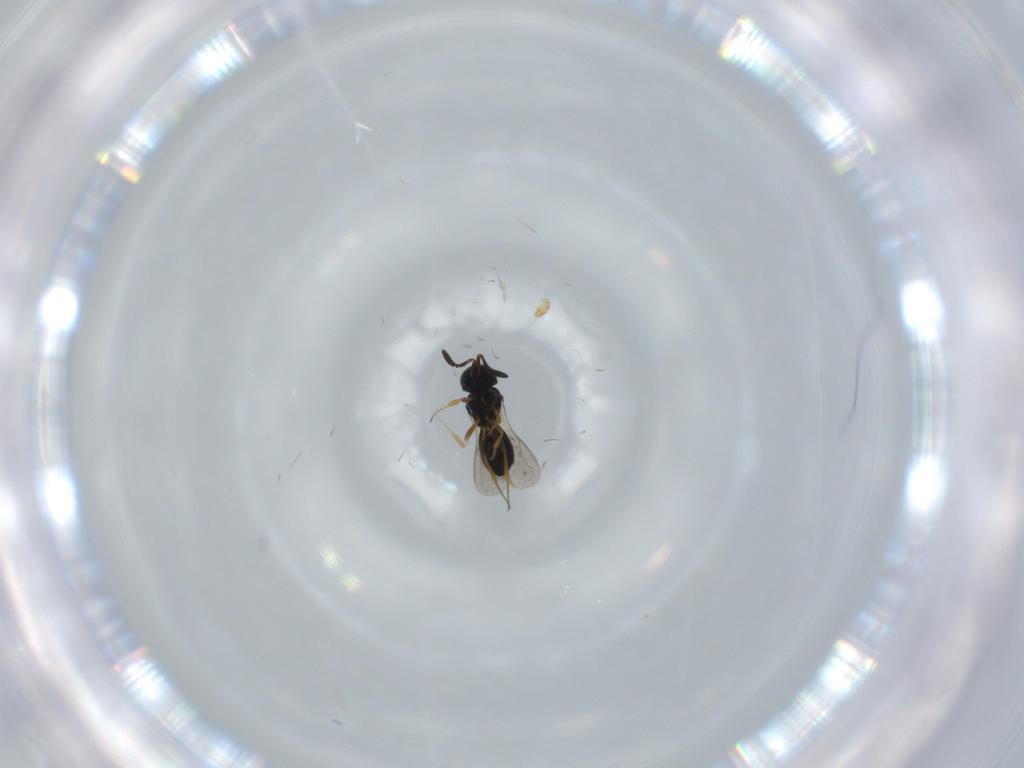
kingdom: Animalia
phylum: Arthropoda
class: Insecta
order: Hymenoptera
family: Scelionidae
